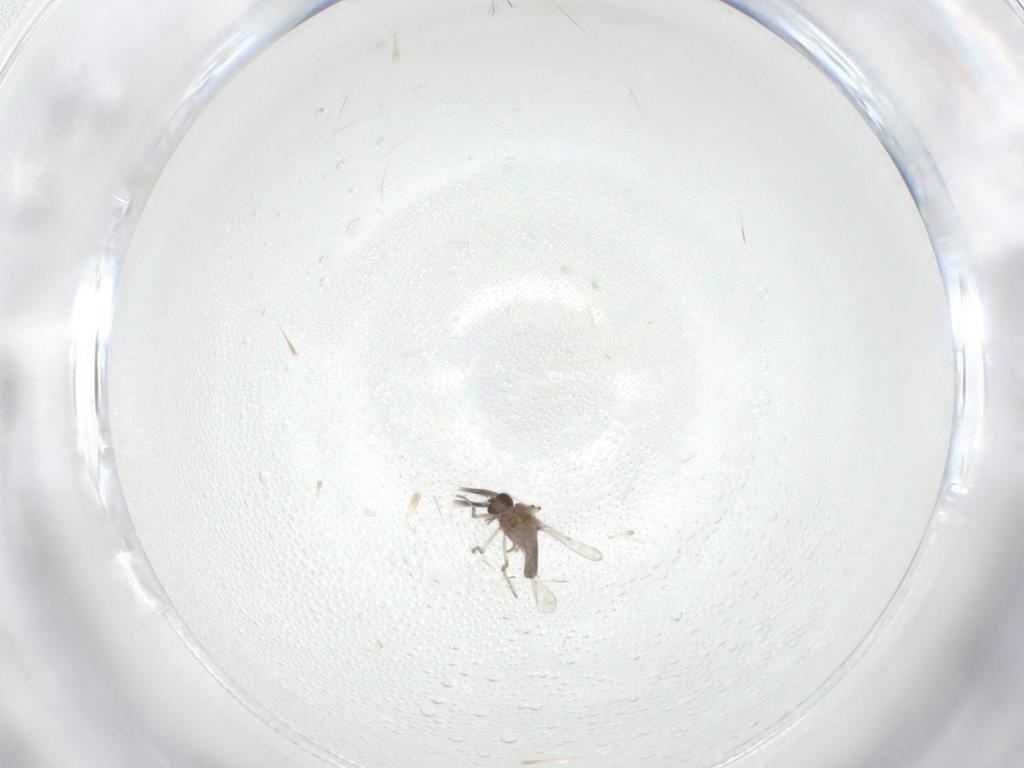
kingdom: Animalia
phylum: Arthropoda
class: Insecta
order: Diptera
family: Ceratopogonidae
